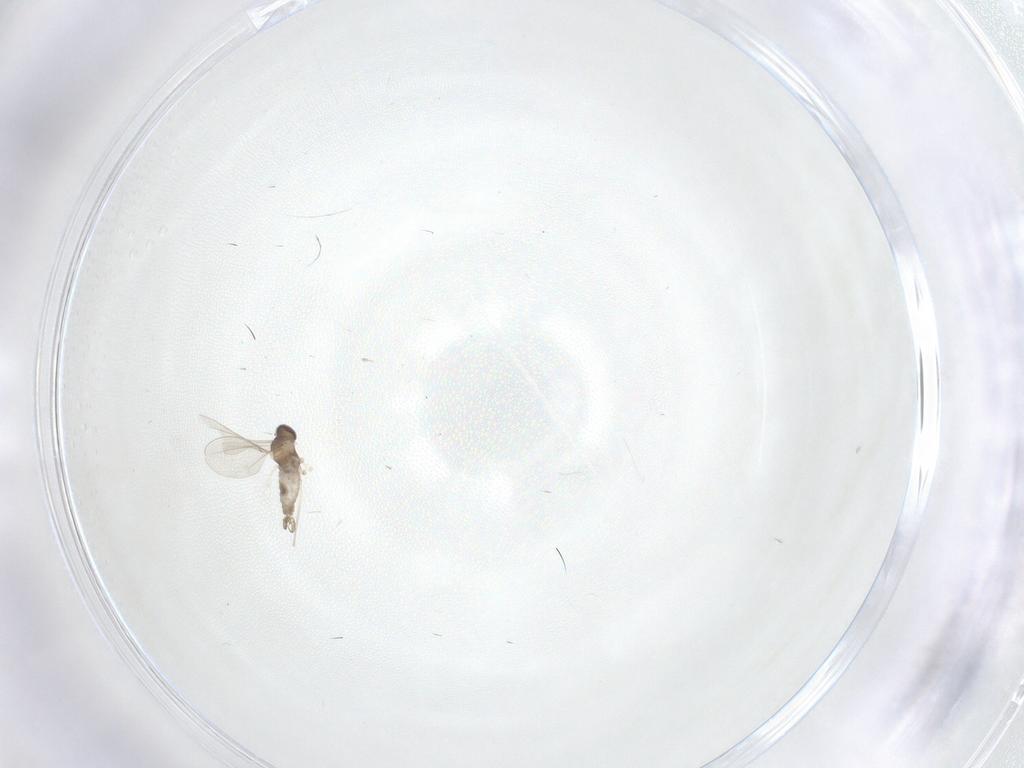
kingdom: Animalia
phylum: Arthropoda
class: Insecta
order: Diptera
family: Cecidomyiidae
